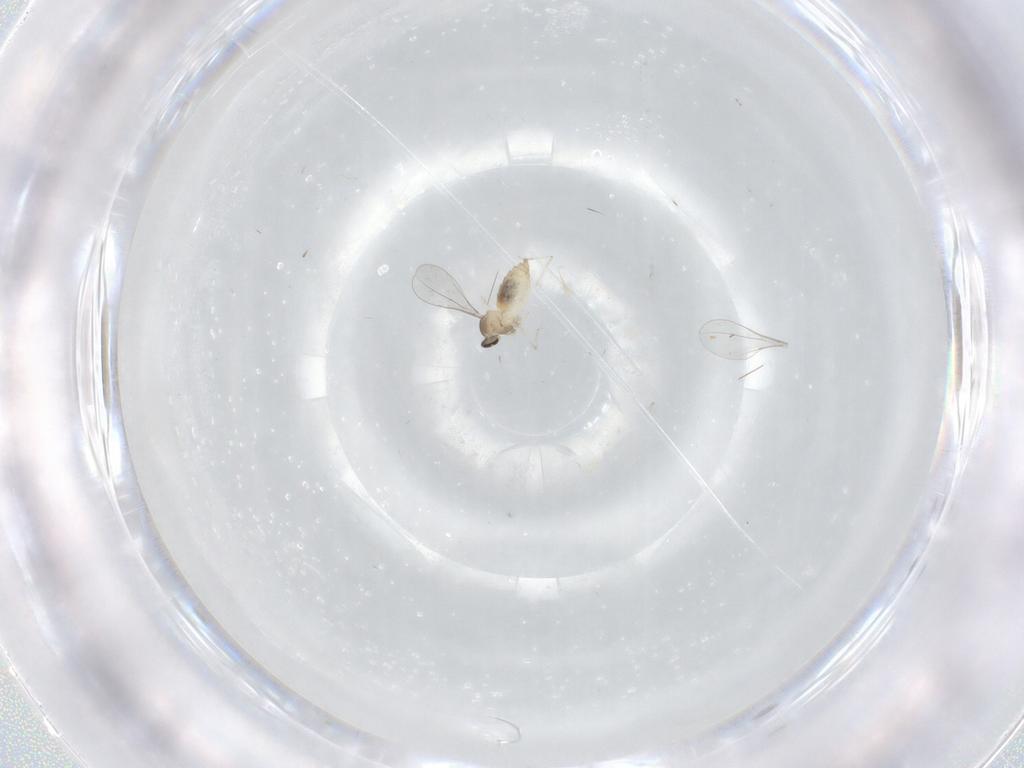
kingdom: Animalia
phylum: Arthropoda
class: Insecta
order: Diptera
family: Cecidomyiidae
